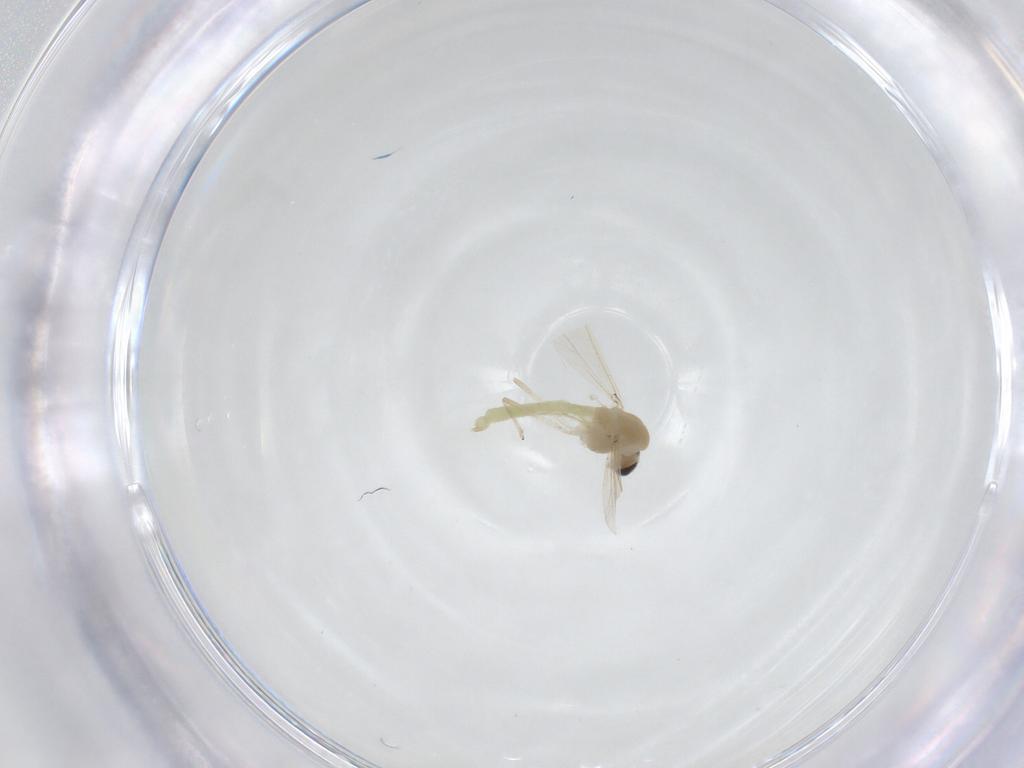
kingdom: Animalia
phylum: Arthropoda
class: Insecta
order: Diptera
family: Chironomidae
